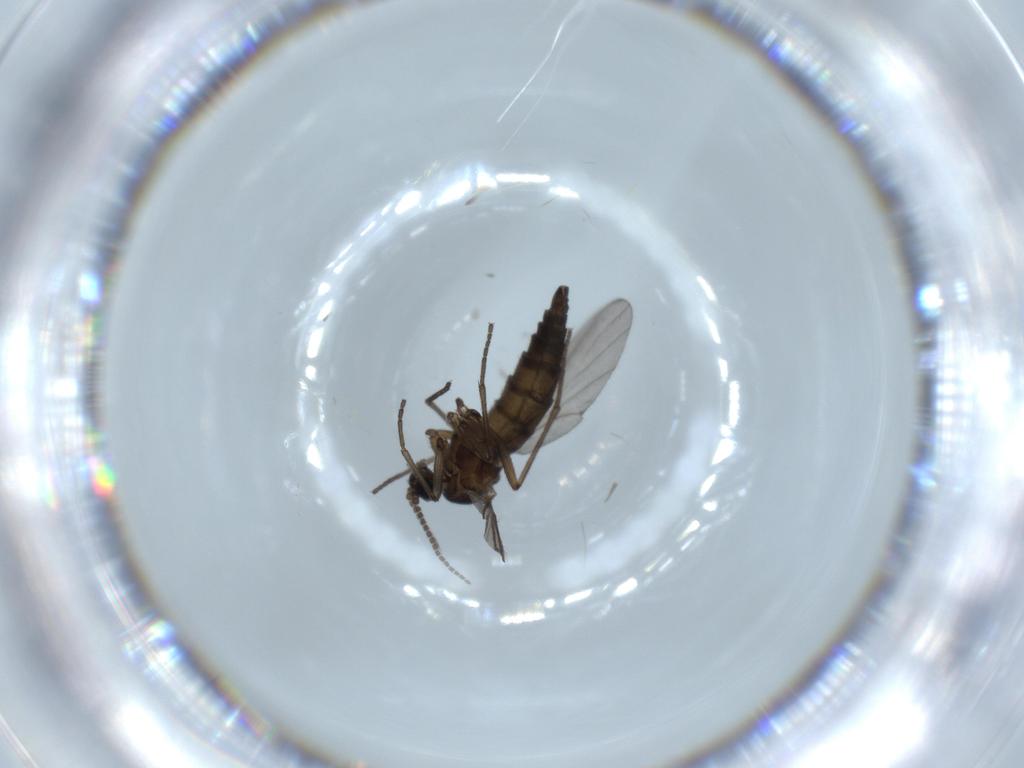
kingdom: Animalia
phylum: Arthropoda
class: Insecta
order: Diptera
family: Sciaridae
